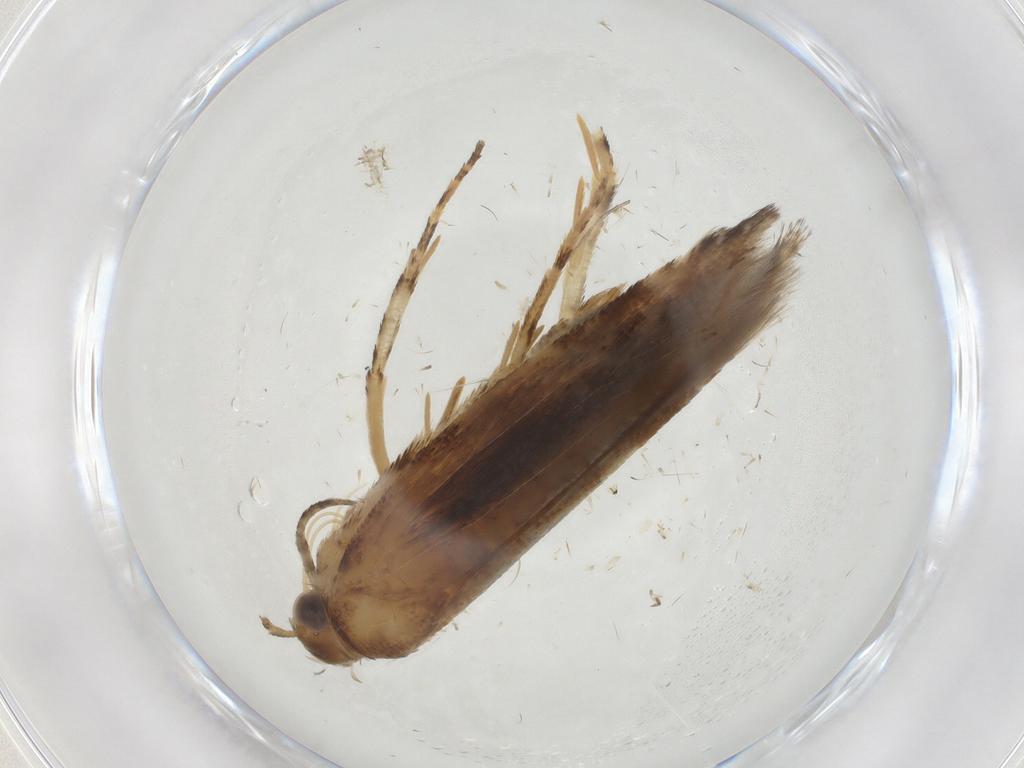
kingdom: Animalia
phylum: Arthropoda
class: Insecta
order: Lepidoptera
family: Gelechiidae
